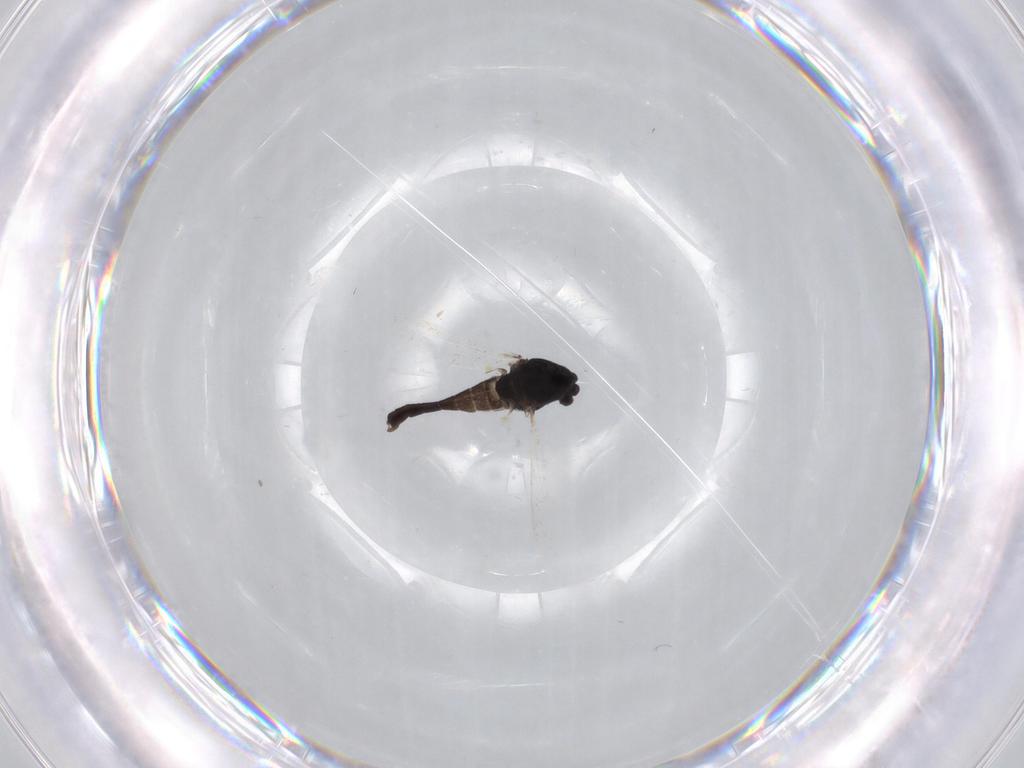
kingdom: Animalia
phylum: Arthropoda
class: Insecta
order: Diptera
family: Chironomidae
